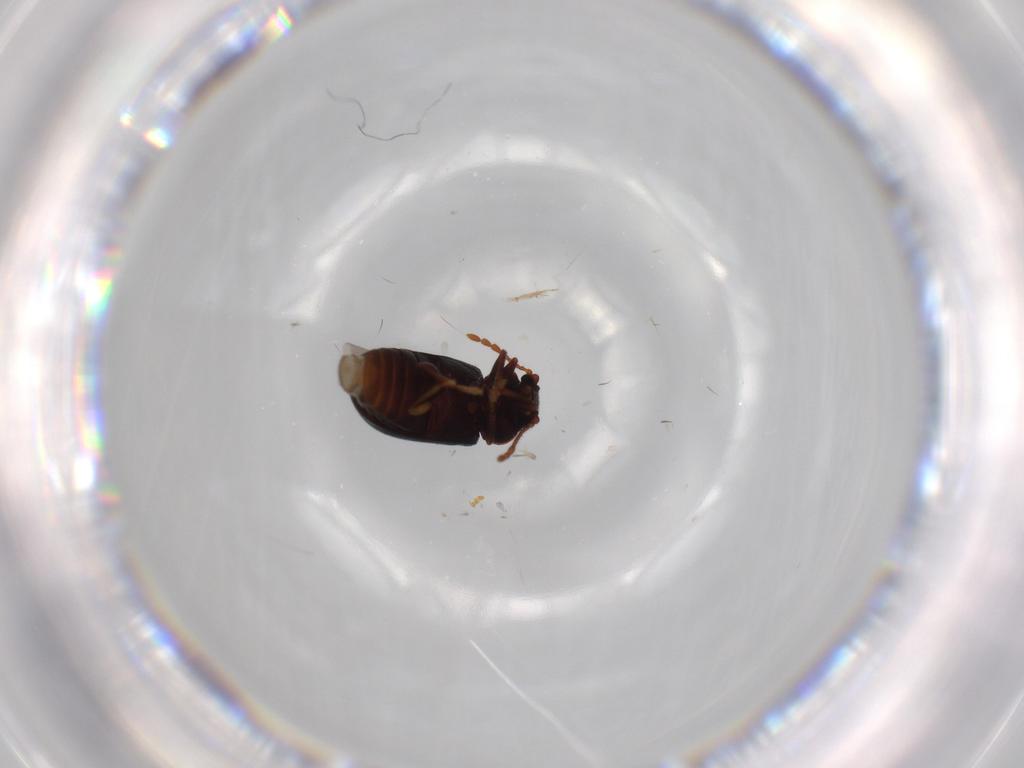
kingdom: Animalia
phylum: Arthropoda
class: Insecta
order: Coleoptera
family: Ptinidae
